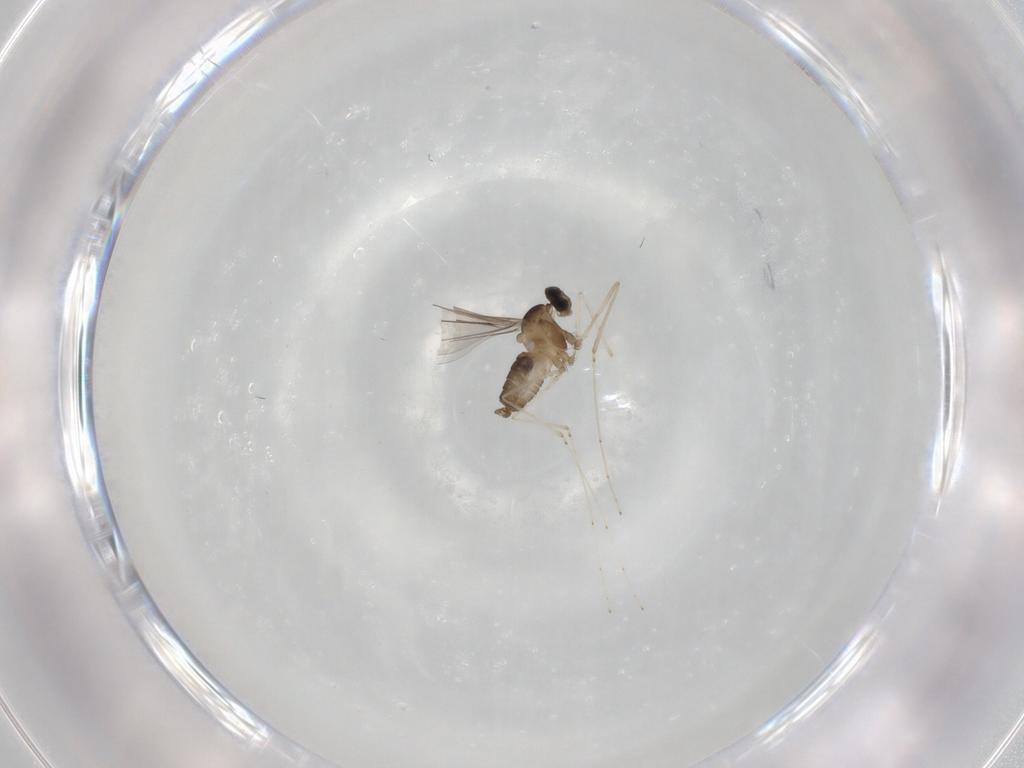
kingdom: Animalia
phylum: Arthropoda
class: Insecta
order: Diptera
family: Cecidomyiidae
